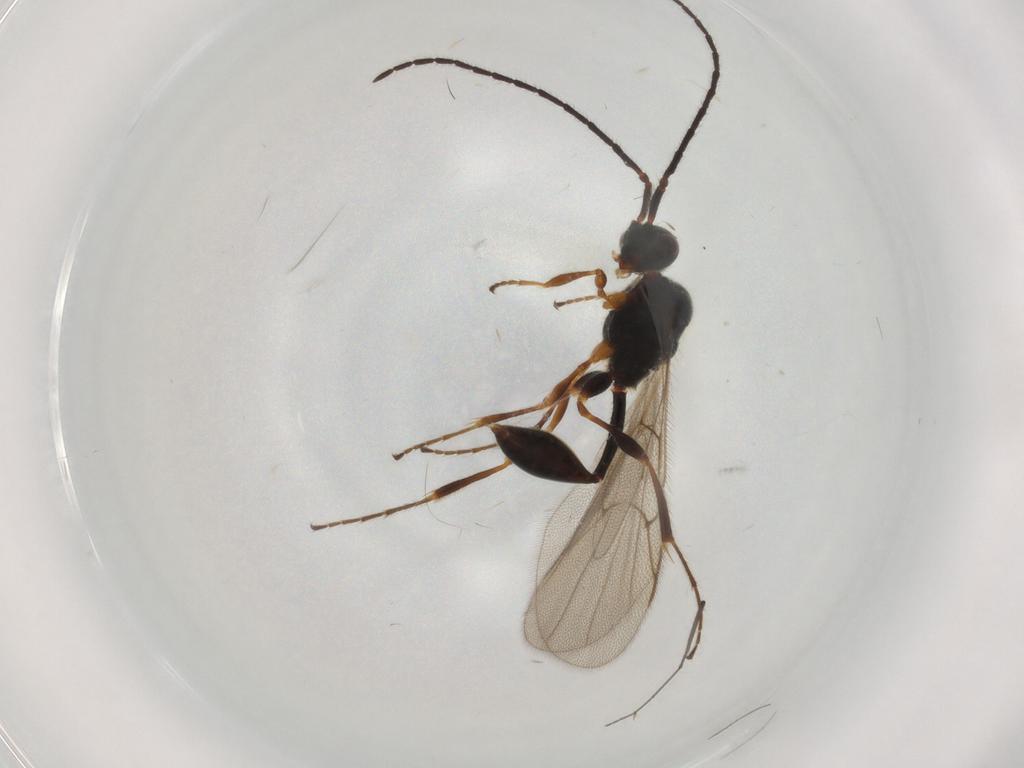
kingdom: Animalia
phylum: Arthropoda
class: Insecta
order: Hymenoptera
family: Diapriidae
